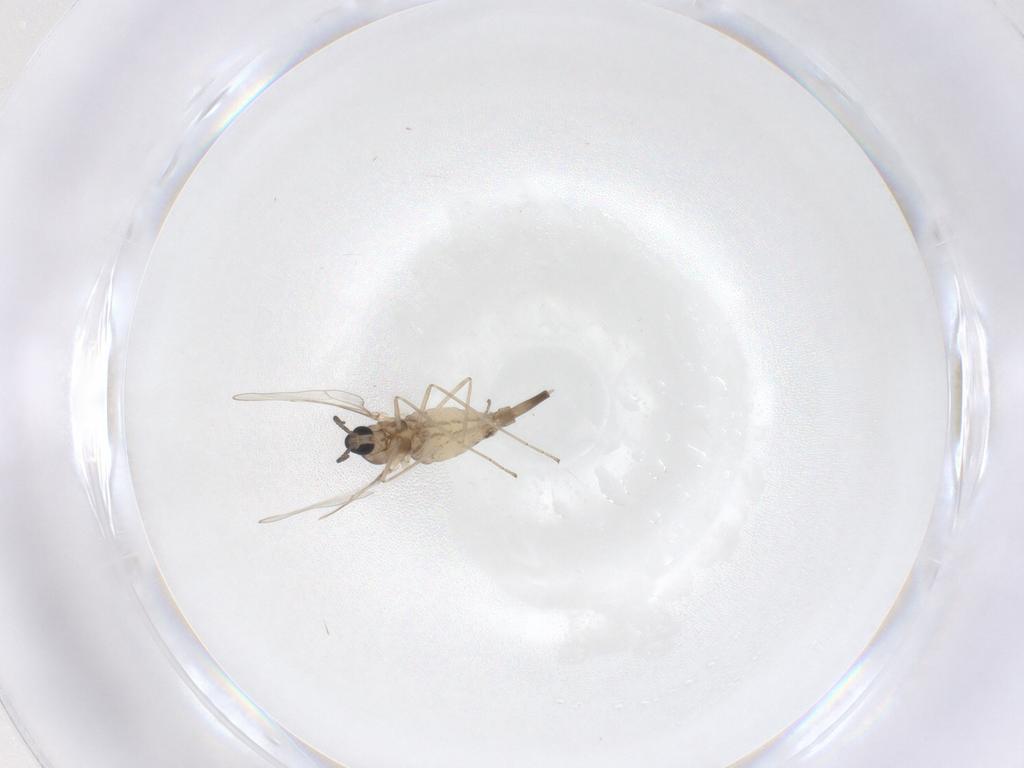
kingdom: Animalia
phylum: Arthropoda
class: Insecta
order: Diptera
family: Cecidomyiidae
